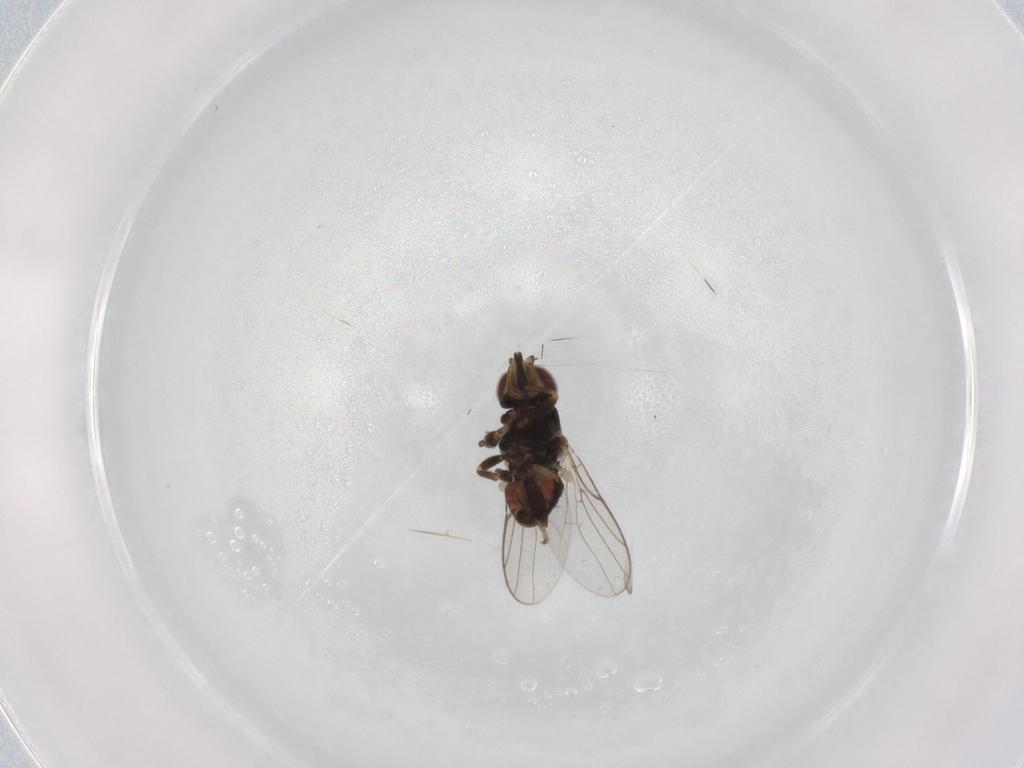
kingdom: Animalia
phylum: Arthropoda
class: Insecta
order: Diptera
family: Chloropidae
